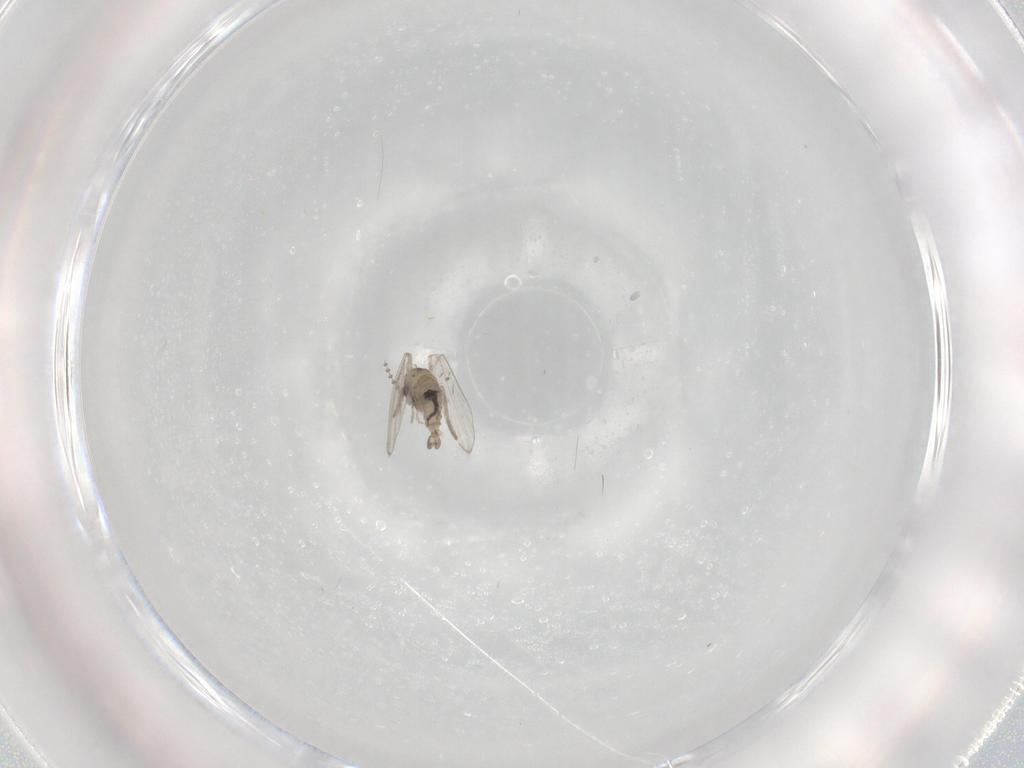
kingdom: Animalia
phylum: Arthropoda
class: Insecta
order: Diptera
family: Psychodidae
